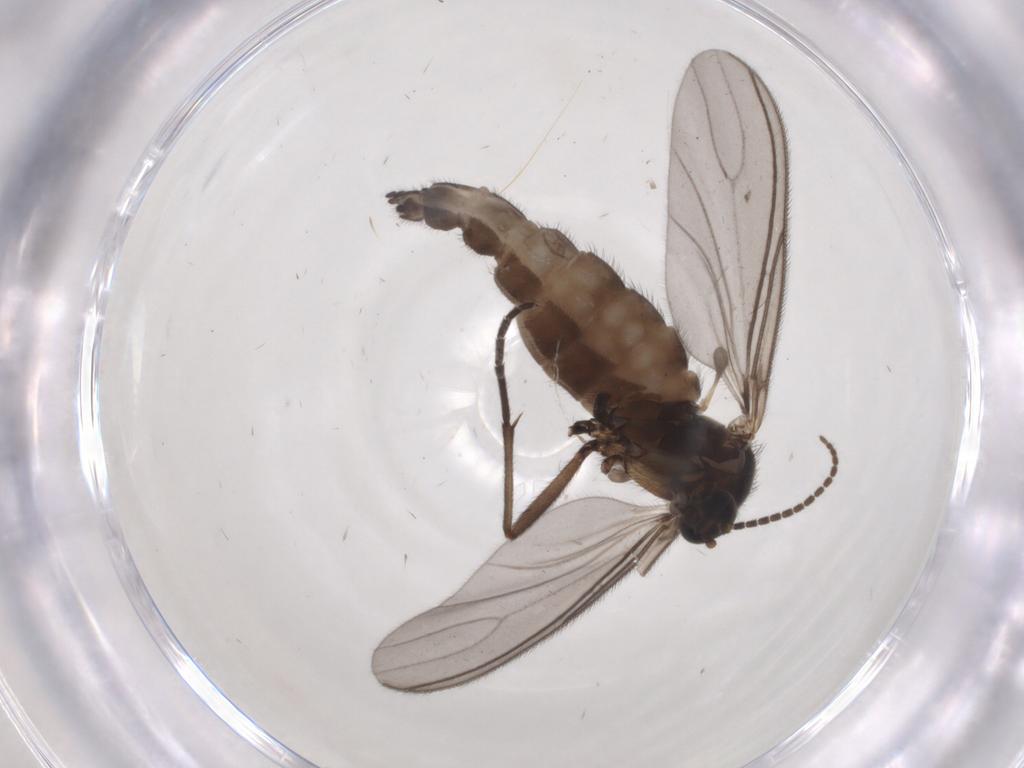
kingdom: Animalia
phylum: Arthropoda
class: Insecta
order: Diptera
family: Sciaridae
